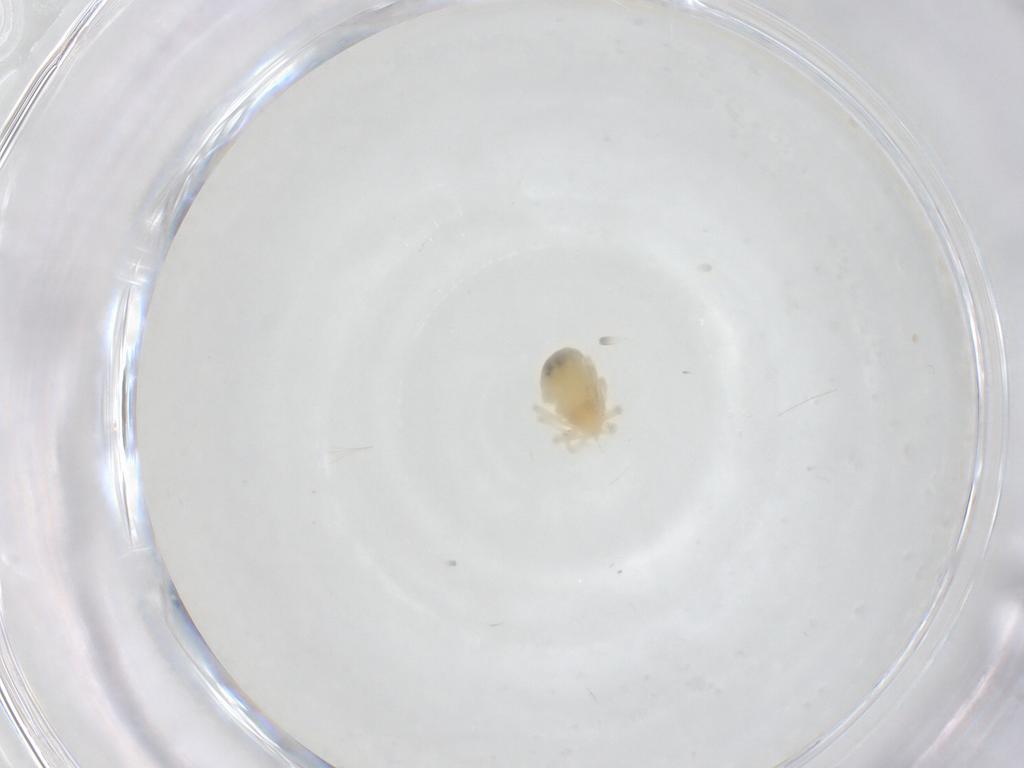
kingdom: Animalia
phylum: Arthropoda
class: Arachnida
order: Trombidiformes
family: Anystidae
